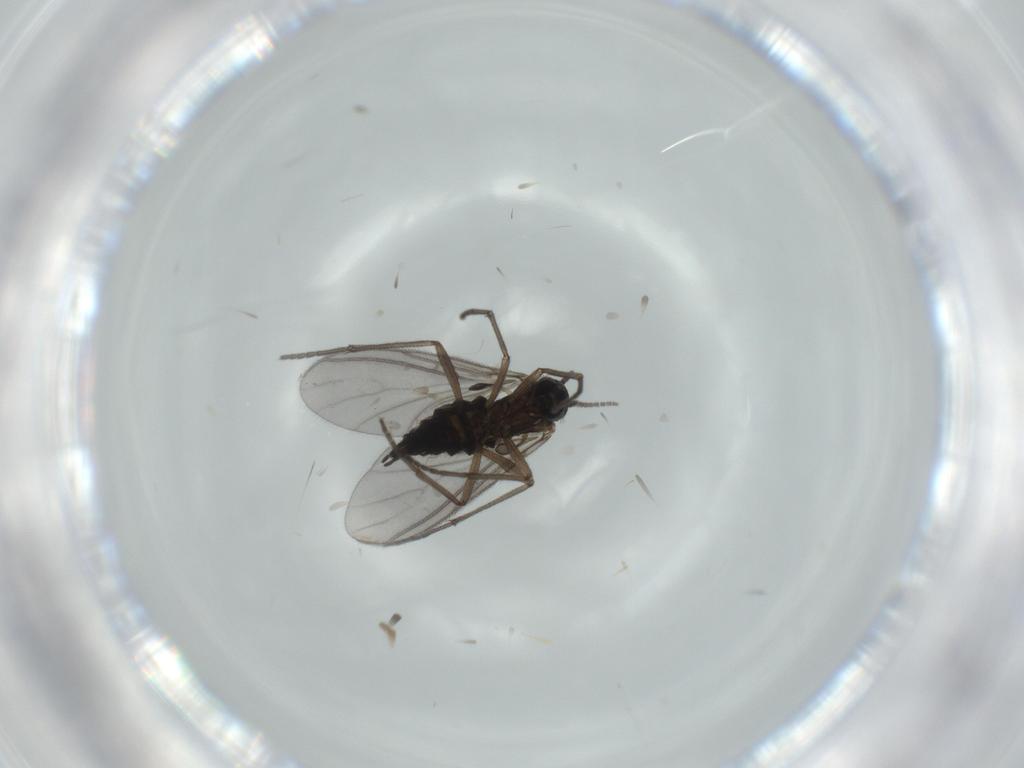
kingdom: Animalia
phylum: Arthropoda
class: Insecta
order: Diptera
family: Sciaridae
